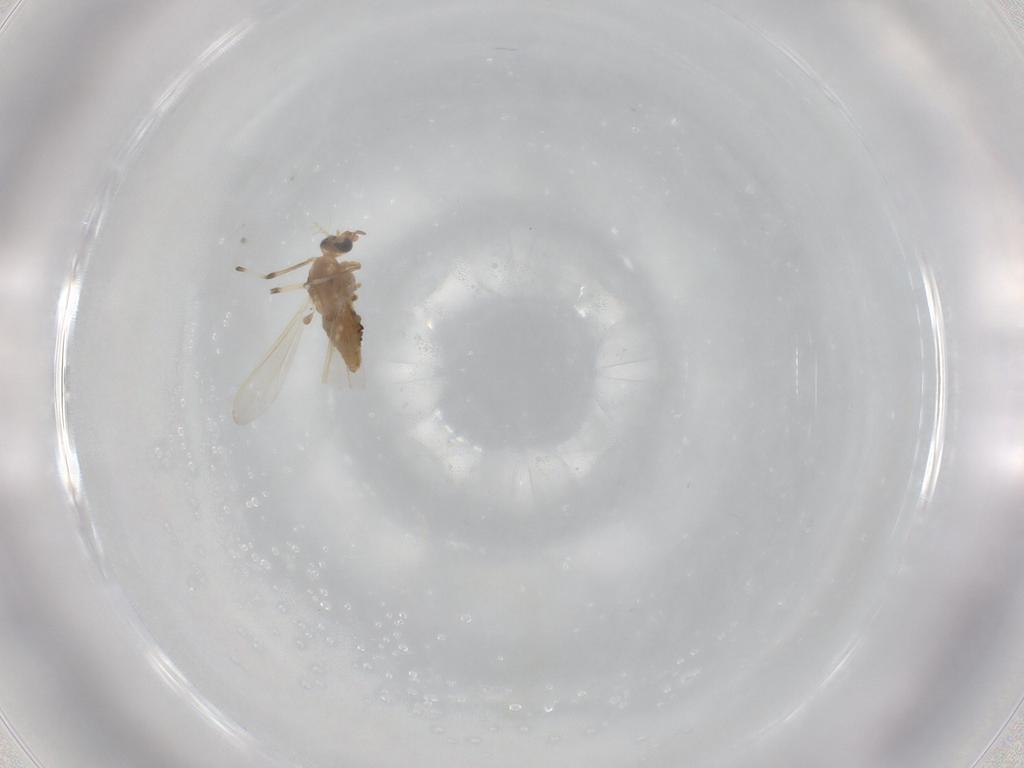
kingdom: Animalia
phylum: Arthropoda
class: Insecta
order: Diptera
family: Chironomidae
